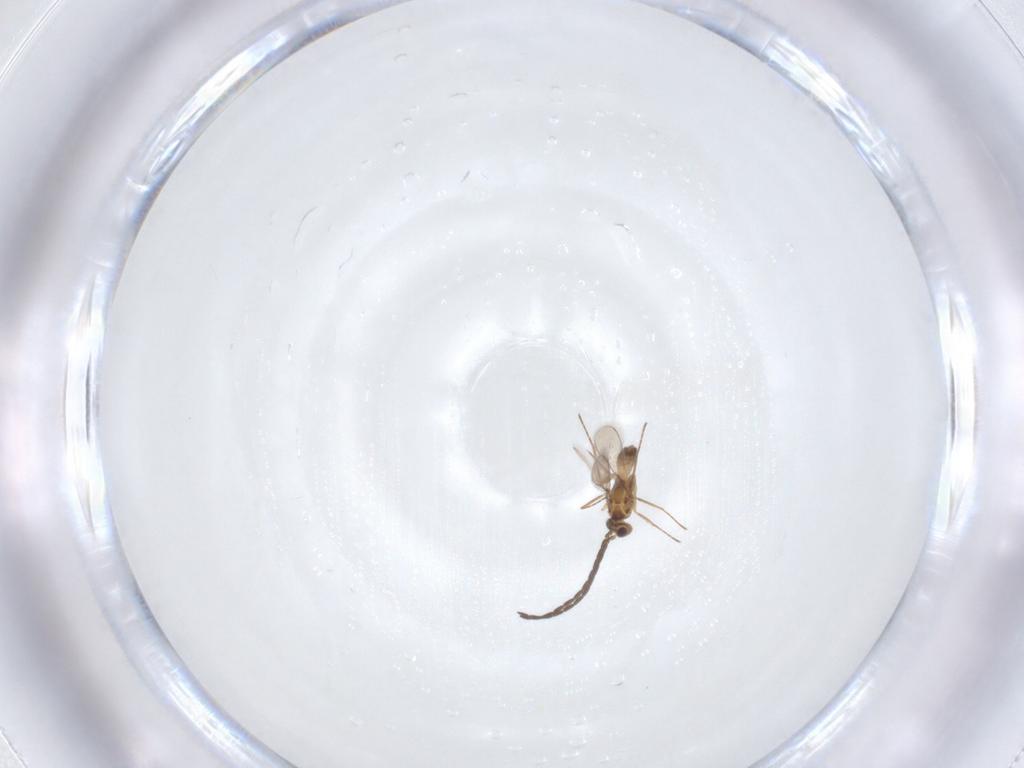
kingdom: Animalia
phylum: Arthropoda
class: Insecta
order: Hymenoptera
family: Mymaridae
